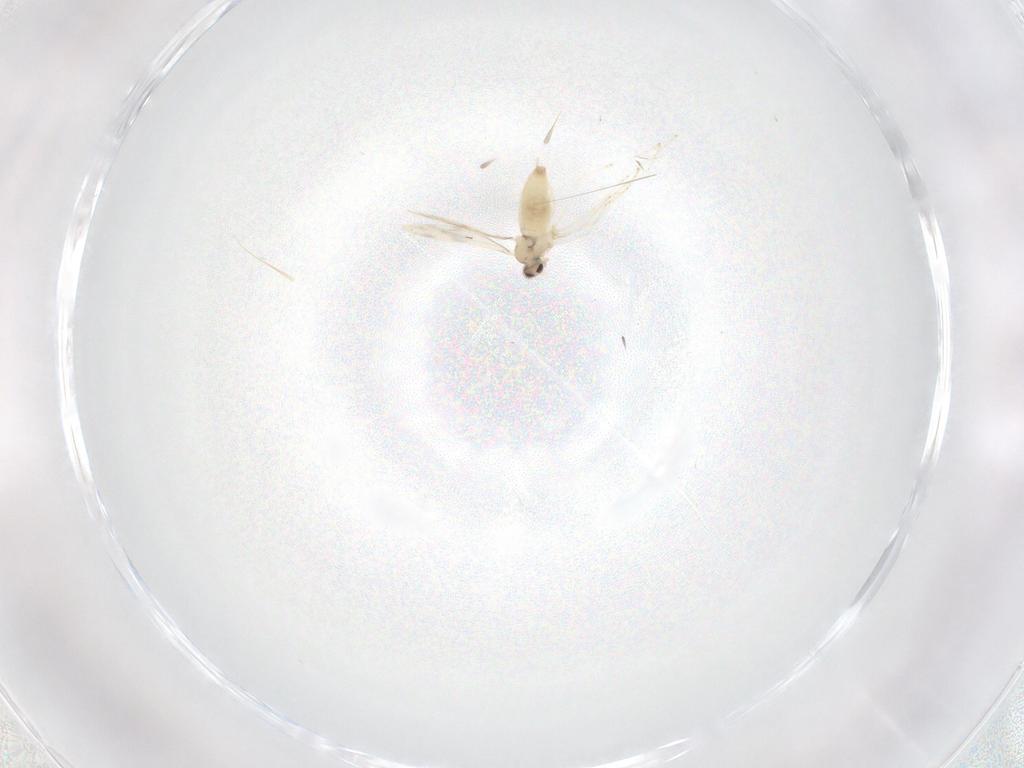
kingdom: Animalia
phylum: Arthropoda
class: Insecta
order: Diptera
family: Cecidomyiidae
